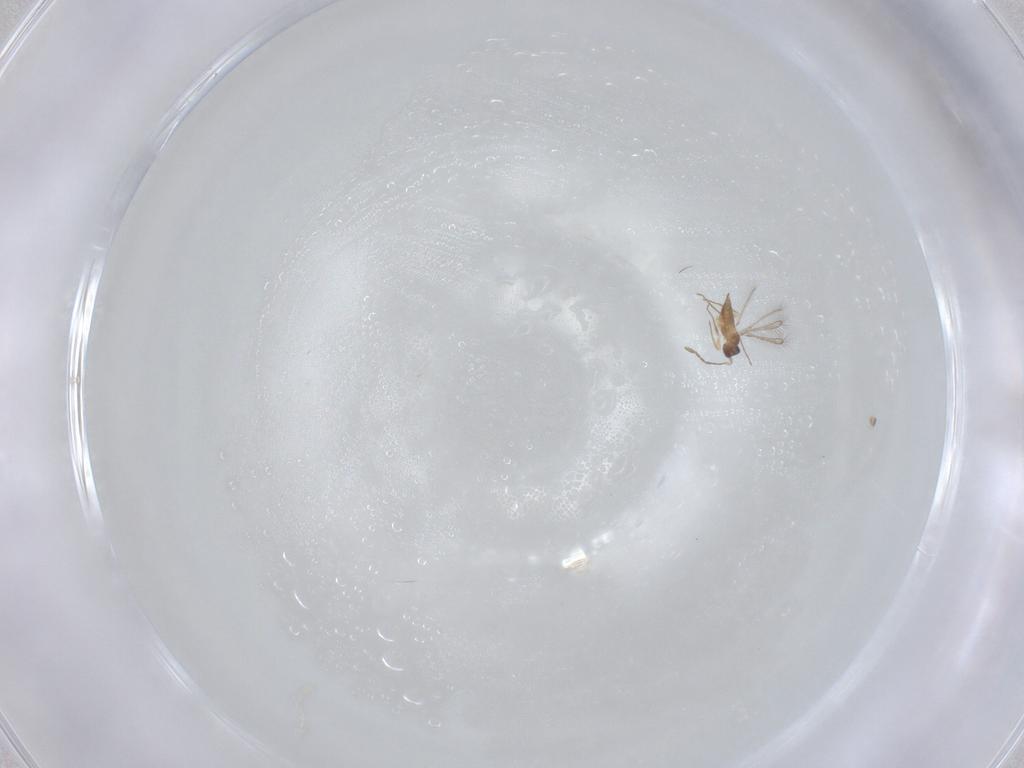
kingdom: Animalia
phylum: Arthropoda
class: Insecta
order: Hymenoptera
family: Mymaridae
